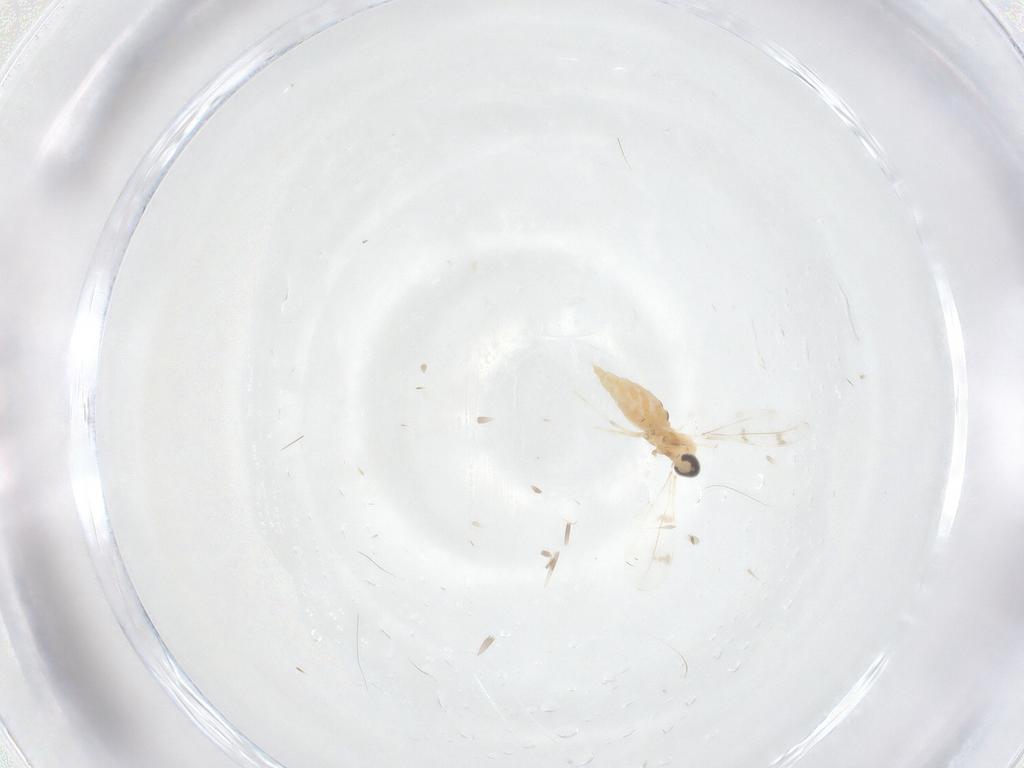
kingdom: Animalia
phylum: Arthropoda
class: Insecta
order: Diptera
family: Cecidomyiidae
